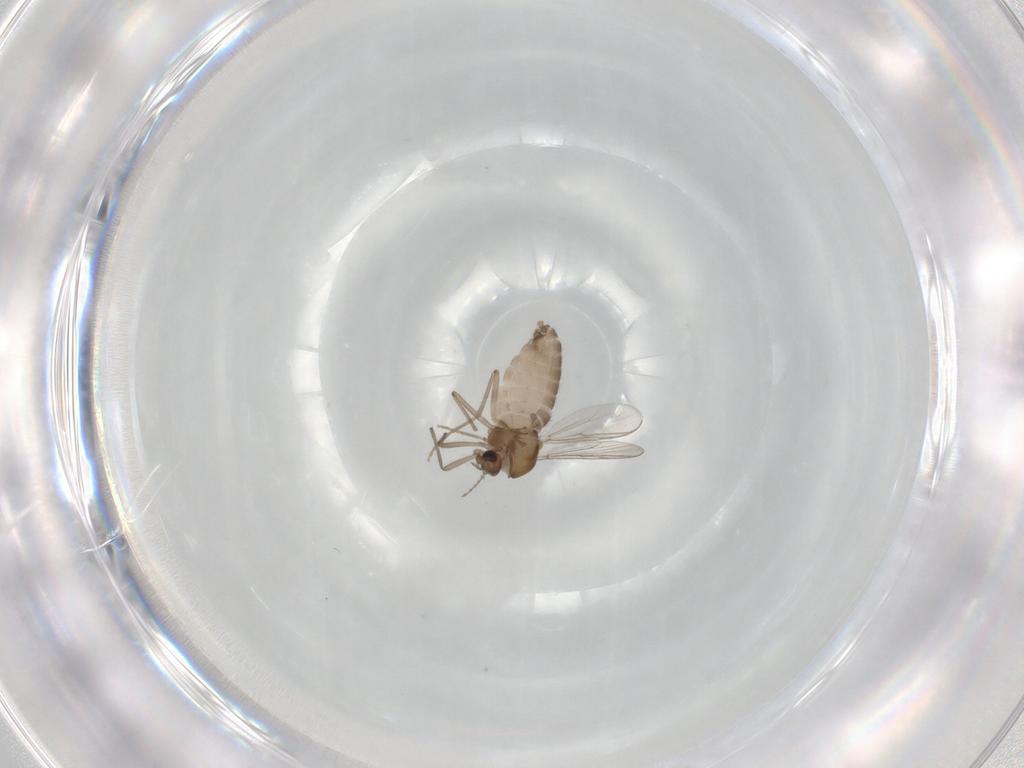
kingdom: Animalia
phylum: Arthropoda
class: Insecta
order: Diptera
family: Chironomidae
